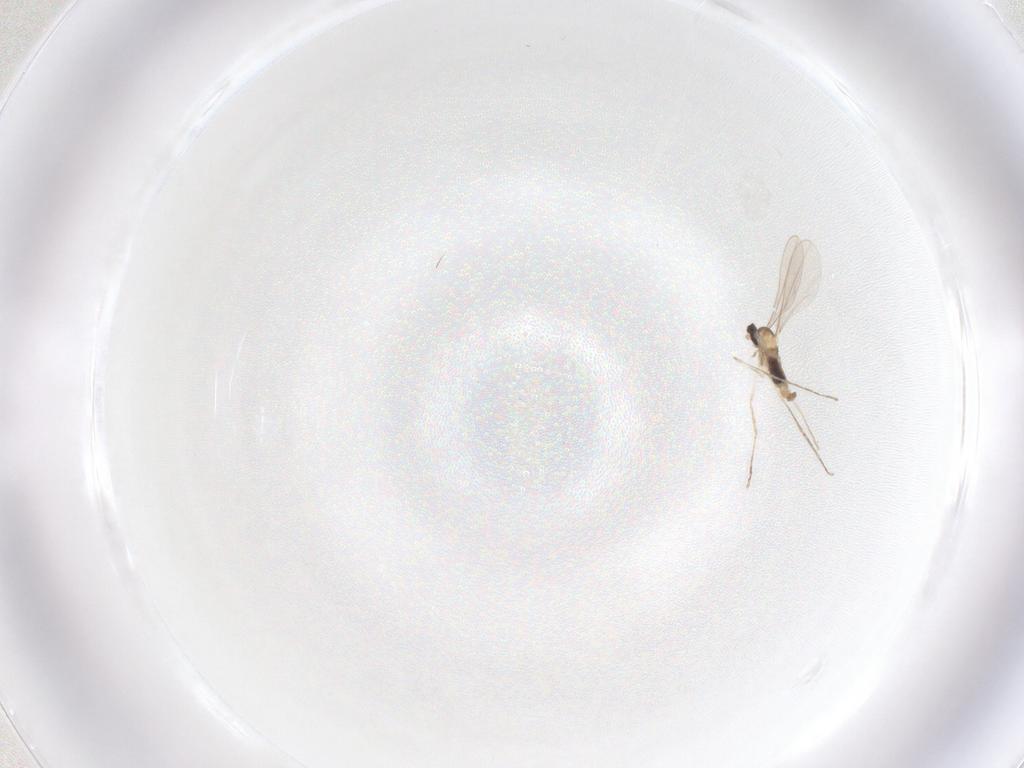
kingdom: Animalia
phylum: Arthropoda
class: Insecta
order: Diptera
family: Cecidomyiidae
